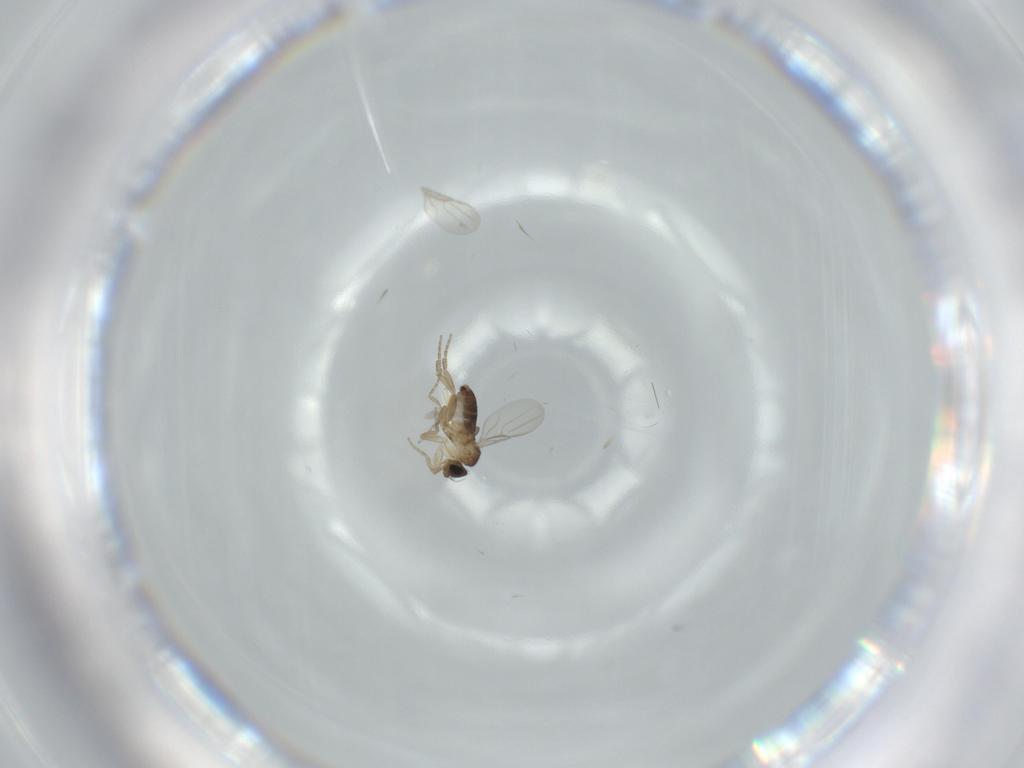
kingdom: Animalia
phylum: Arthropoda
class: Insecta
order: Diptera
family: Phoridae
